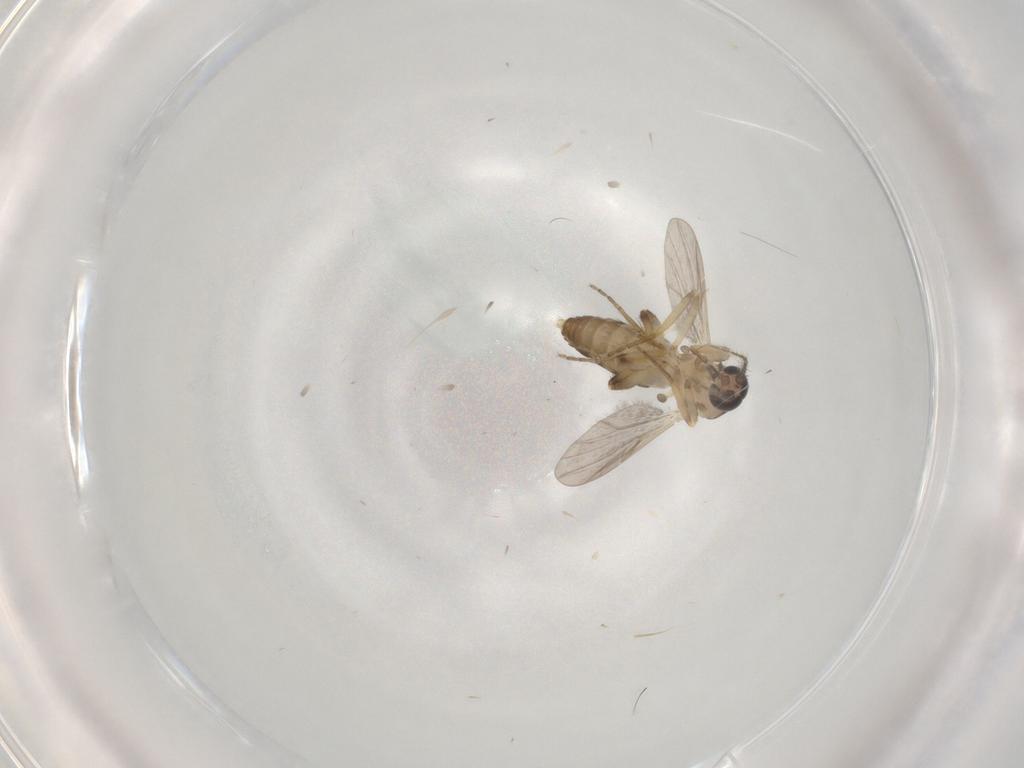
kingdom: Animalia
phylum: Arthropoda
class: Insecta
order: Diptera
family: Ceratopogonidae
